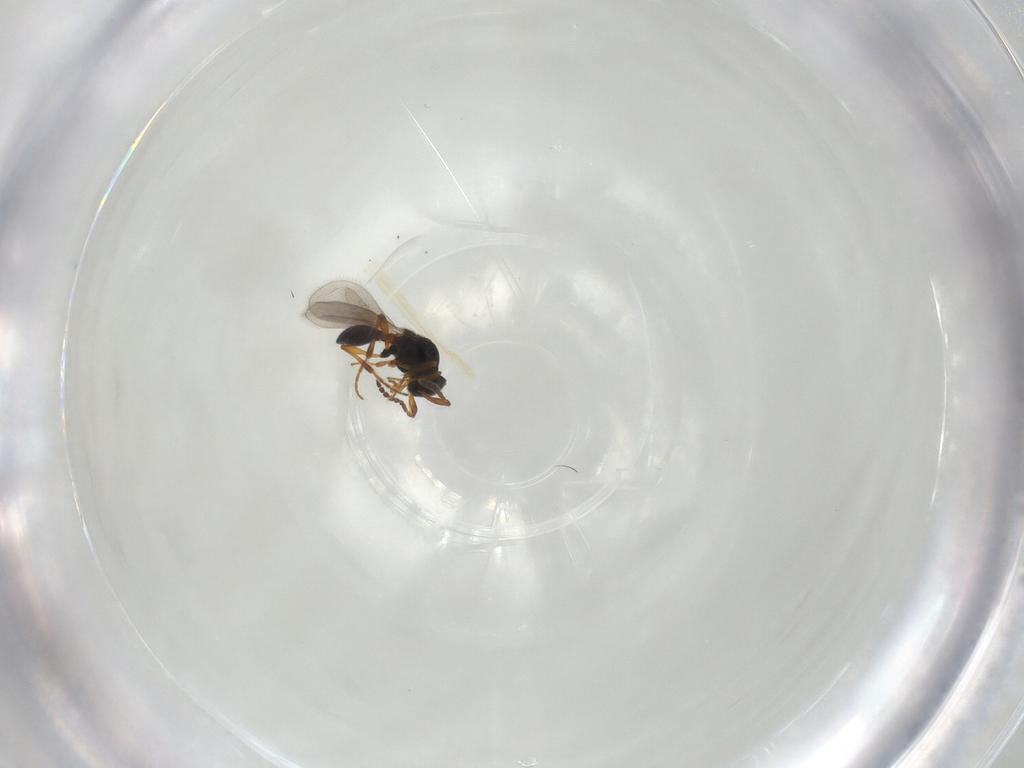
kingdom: Animalia
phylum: Arthropoda
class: Insecta
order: Hymenoptera
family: Platygastridae
